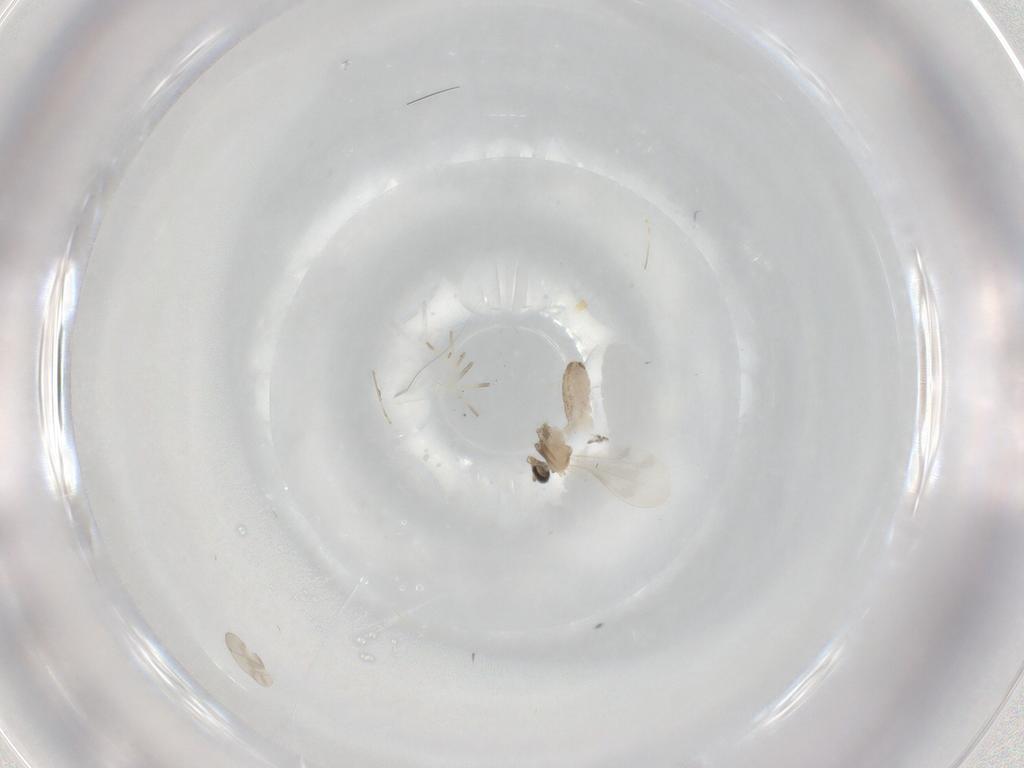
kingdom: Animalia
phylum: Arthropoda
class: Insecta
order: Diptera
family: Cecidomyiidae
